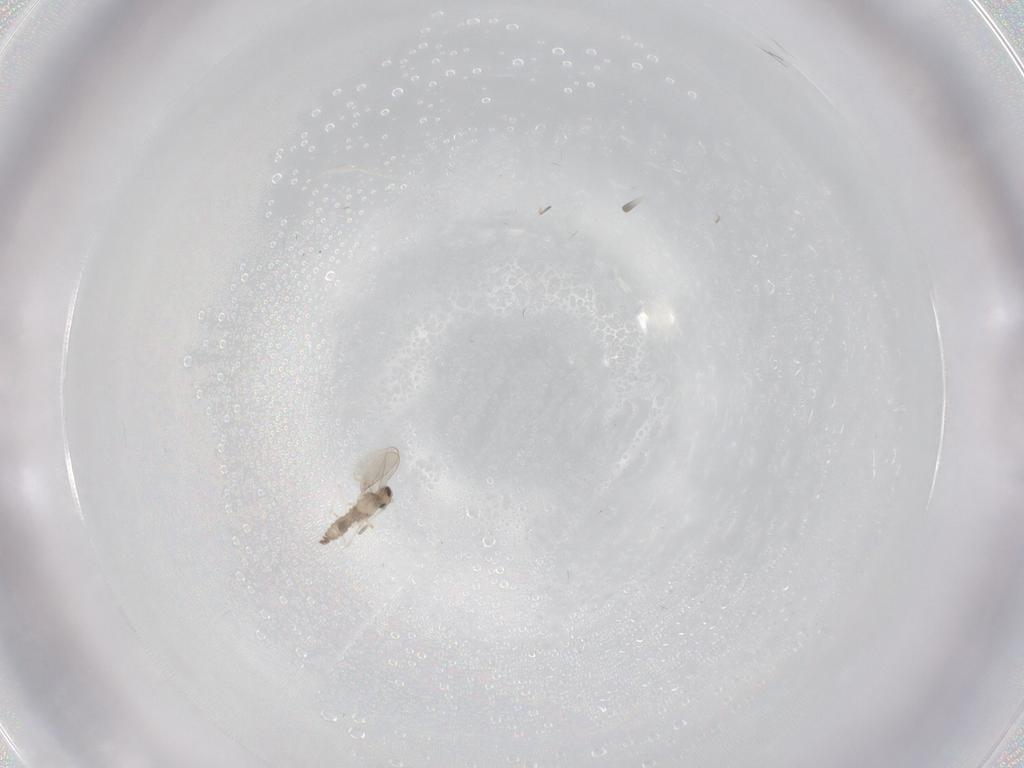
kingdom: Animalia
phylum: Arthropoda
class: Insecta
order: Diptera
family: Cecidomyiidae
